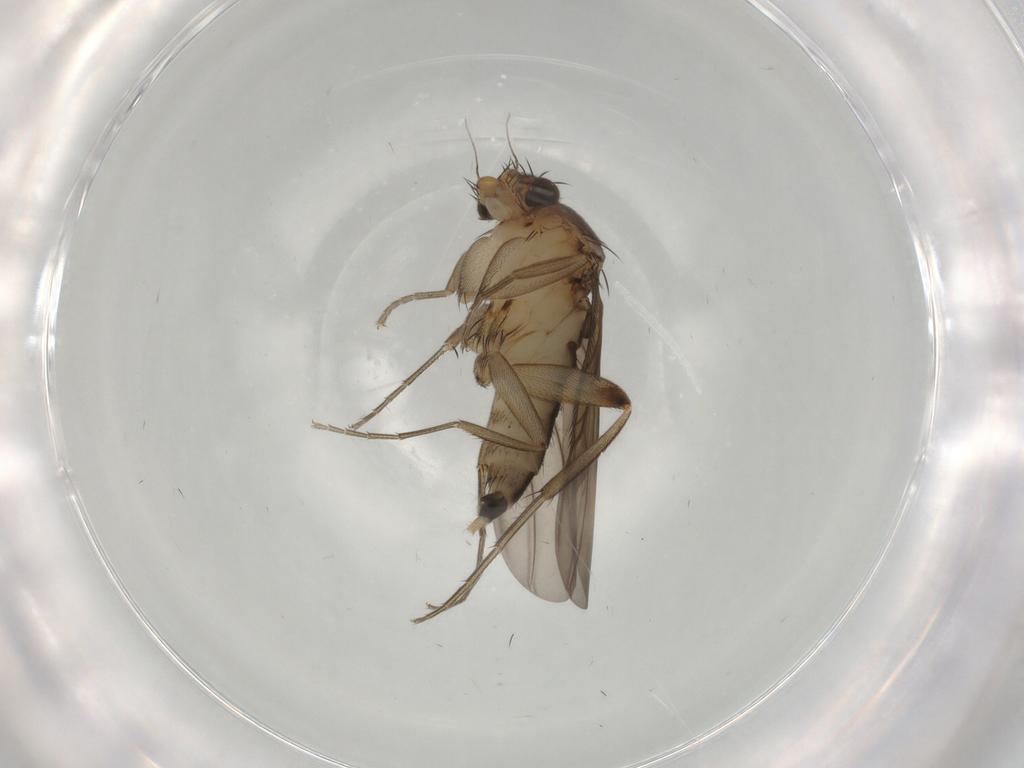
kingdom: Animalia
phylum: Arthropoda
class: Insecta
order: Diptera
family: Phoridae
